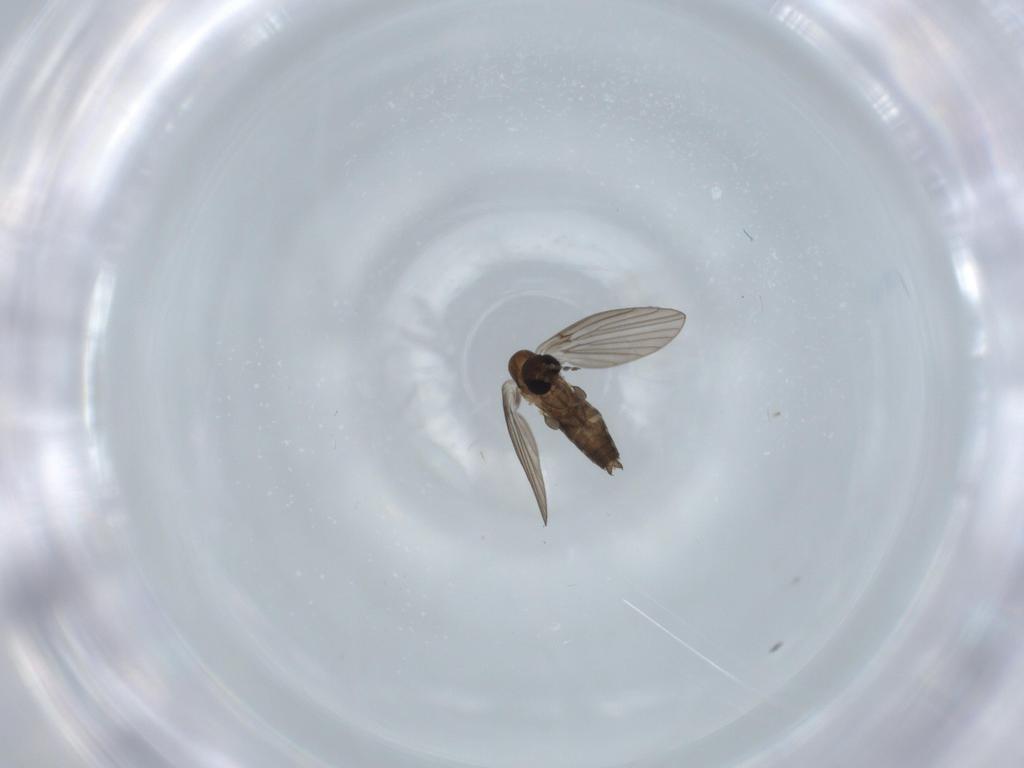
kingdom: Animalia
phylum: Arthropoda
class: Insecta
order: Diptera
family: Psychodidae
